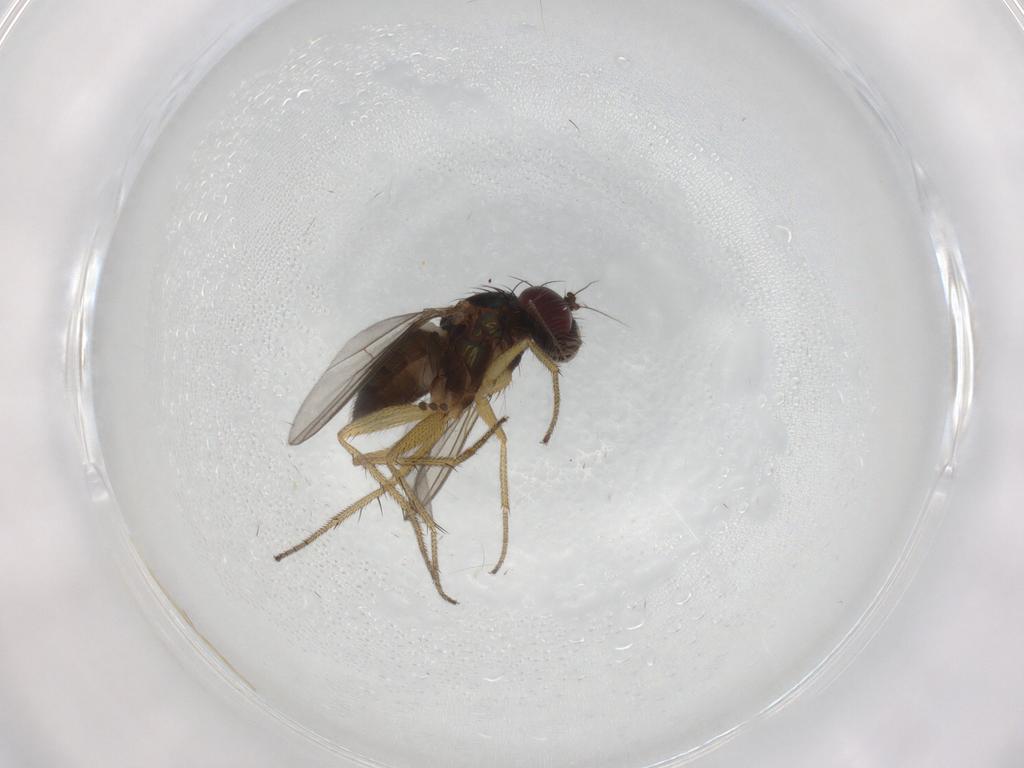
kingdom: Animalia
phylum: Arthropoda
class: Insecta
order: Diptera
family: Chironomidae
